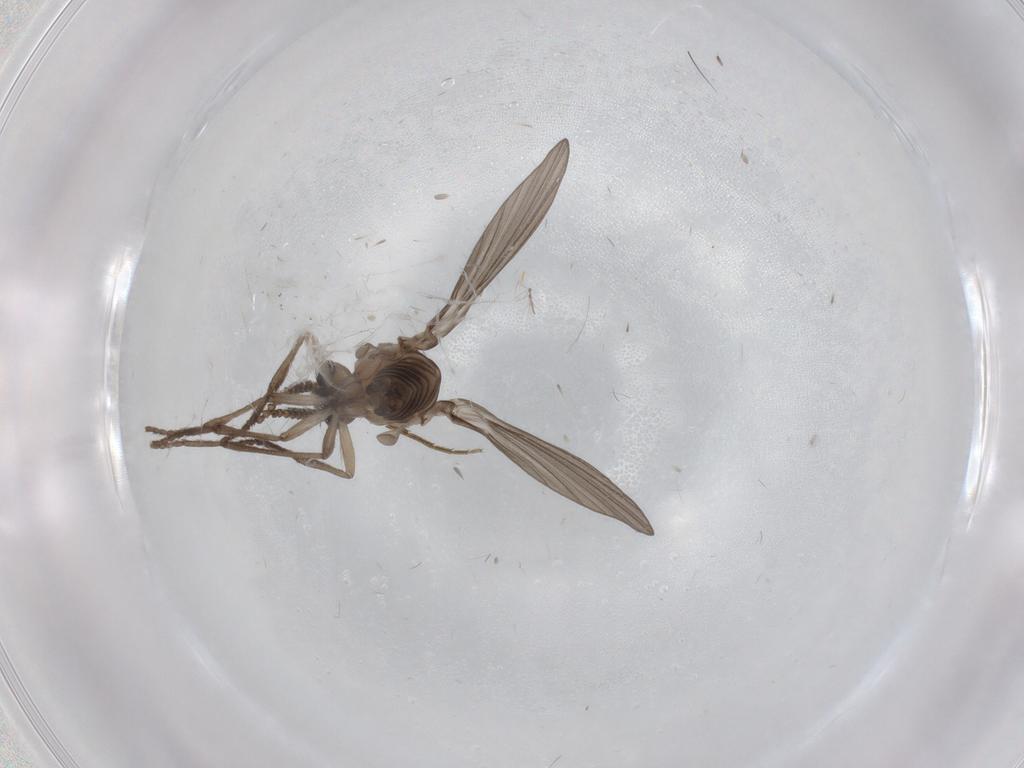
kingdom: Animalia
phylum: Arthropoda
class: Insecta
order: Diptera
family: Psychodidae
